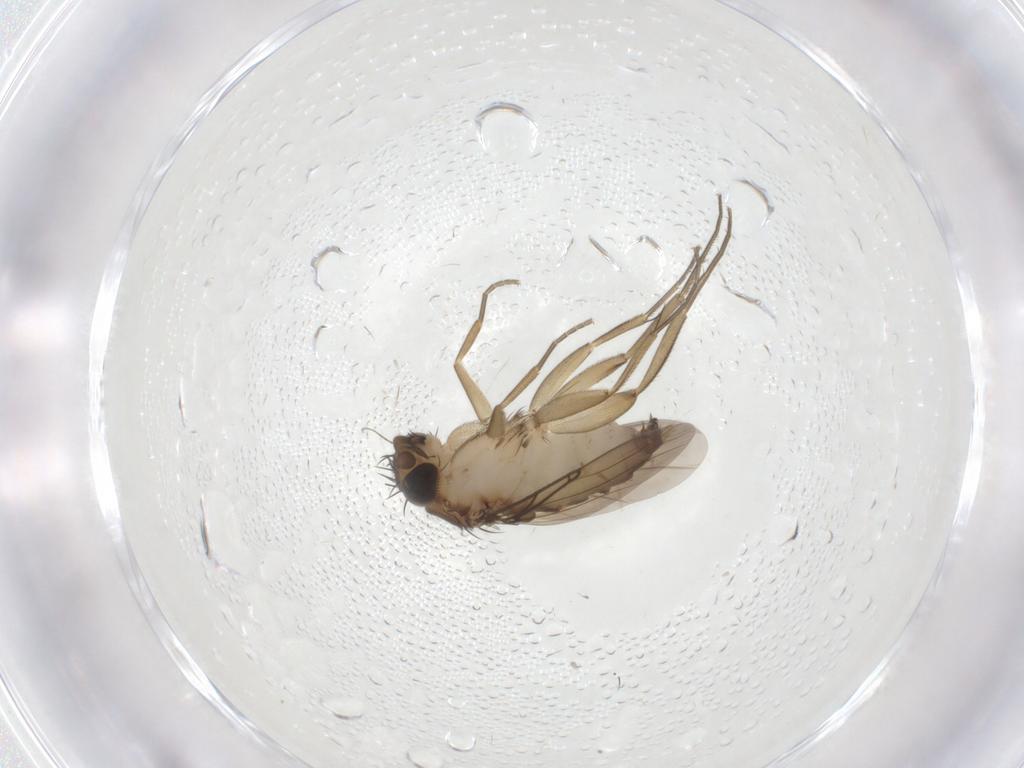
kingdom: Animalia
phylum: Arthropoda
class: Insecta
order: Diptera
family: Phoridae
